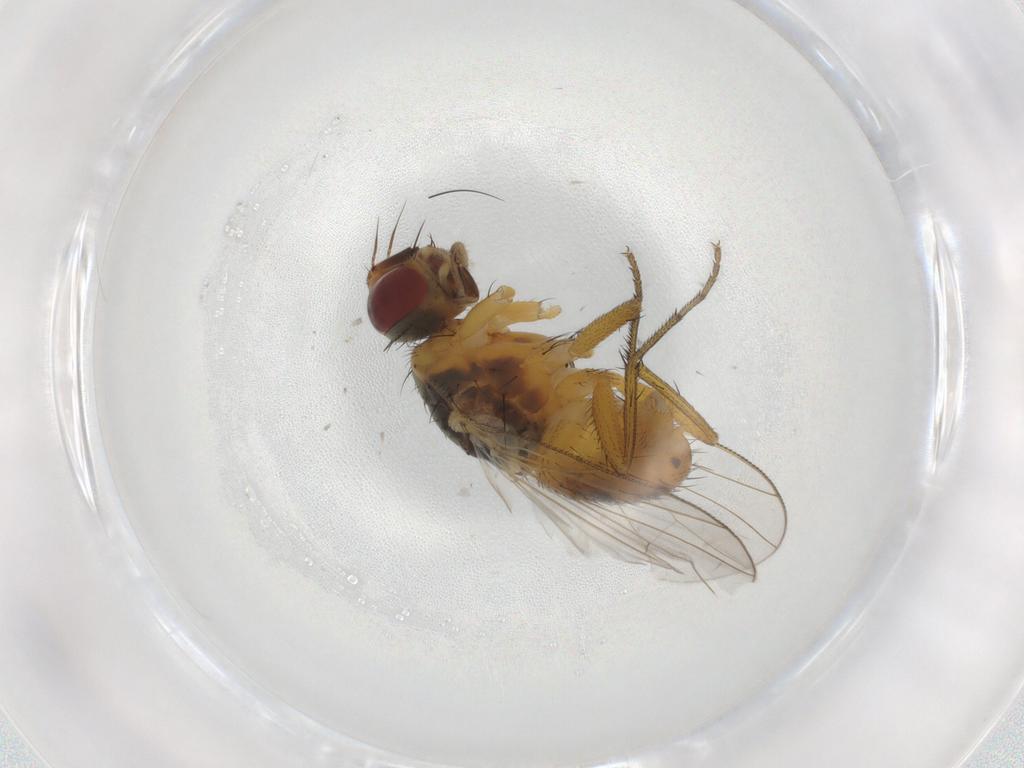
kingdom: Animalia
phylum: Arthropoda
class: Insecta
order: Diptera
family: Muscidae
